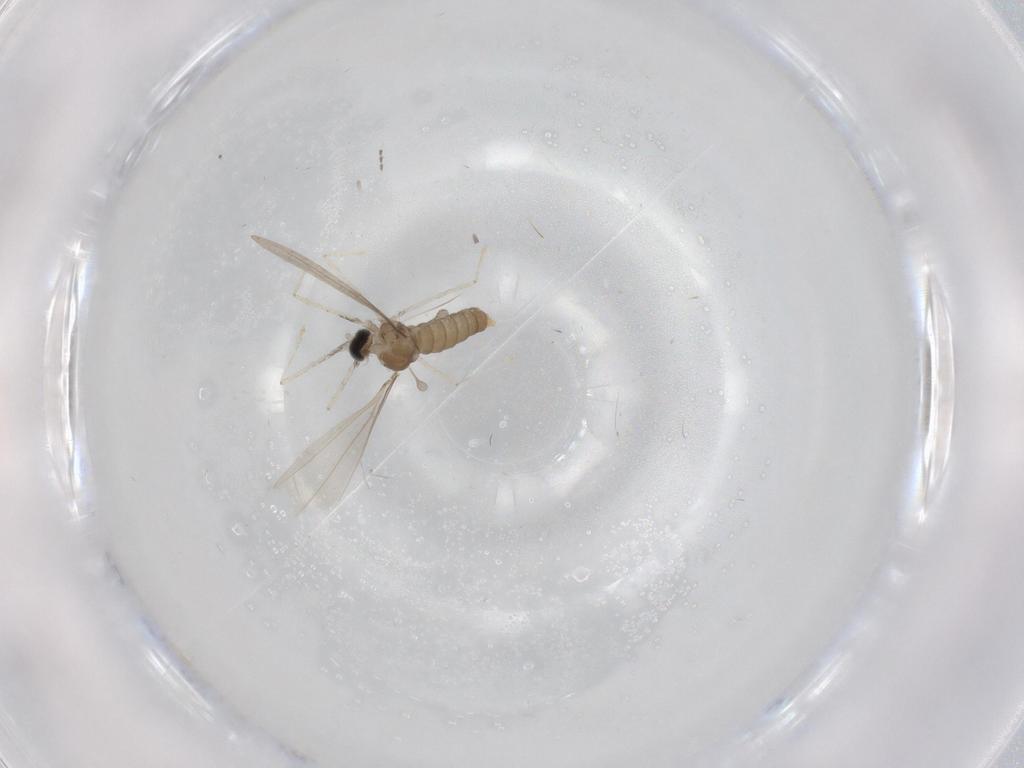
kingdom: Animalia
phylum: Arthropoda
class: Insecta
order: Diptera
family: Cecidomyiidae
